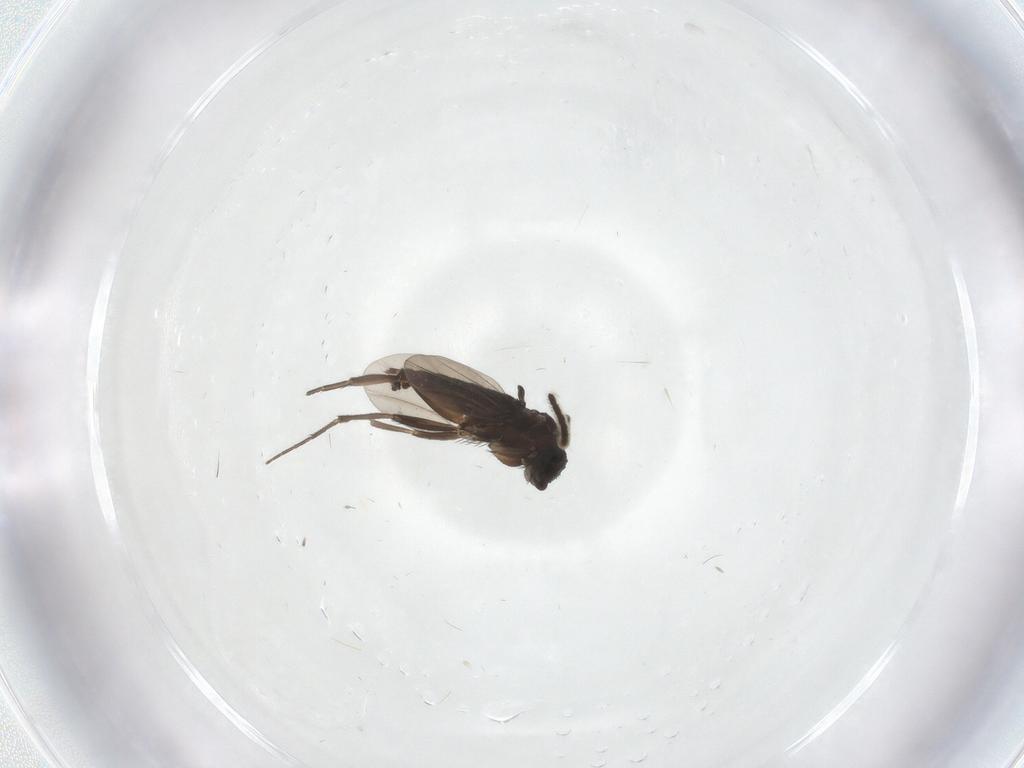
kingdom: Animalia
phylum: Arthropoda
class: Insecta
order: Diptera
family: Phoridae
